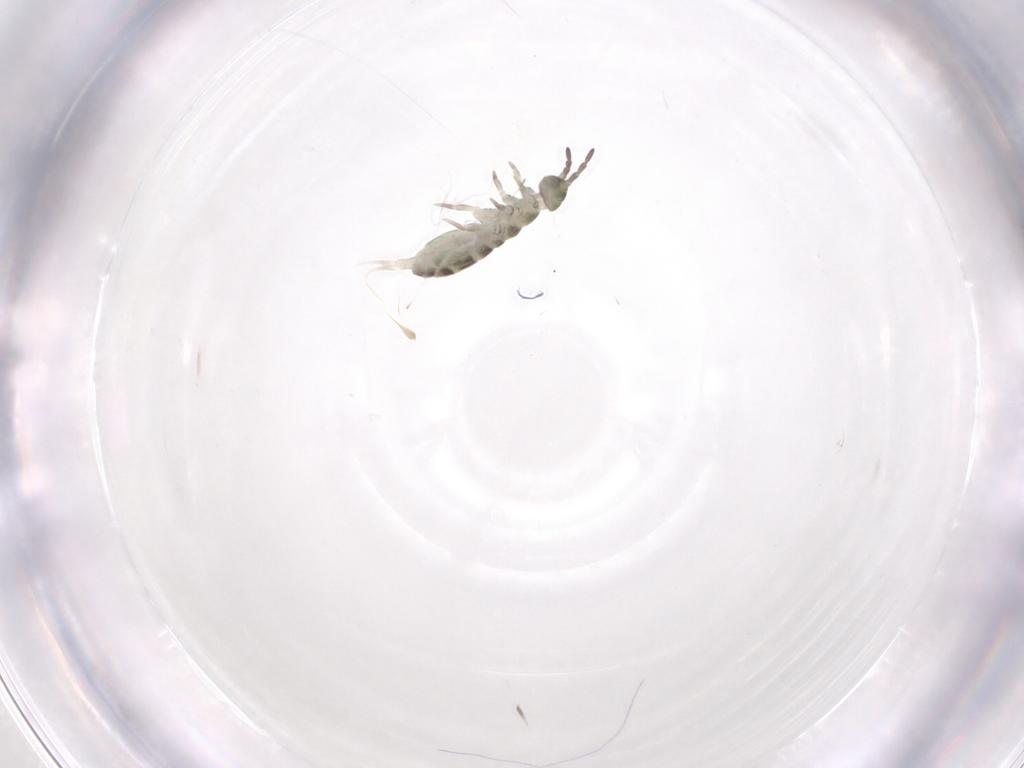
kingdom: Animalia
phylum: Arthropoda
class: Collembola
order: Entomobryomorpha
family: Isotomidae
